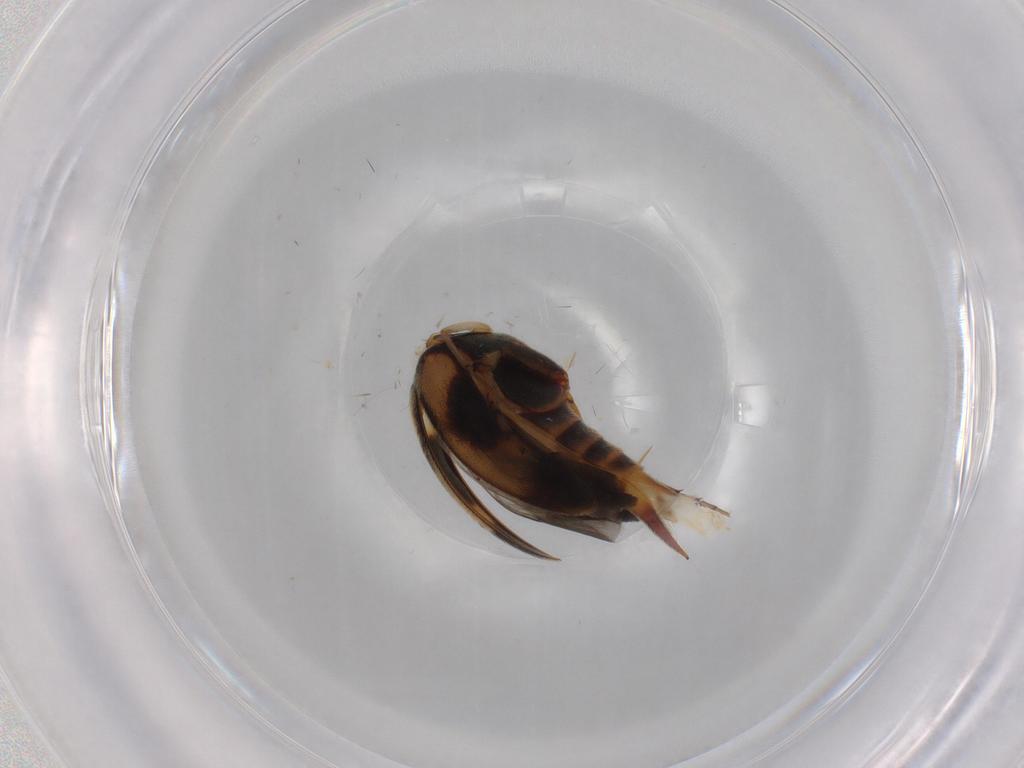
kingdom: Animalia
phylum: Arthropoda
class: Insecta
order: Coleoptera
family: Mordellidae
